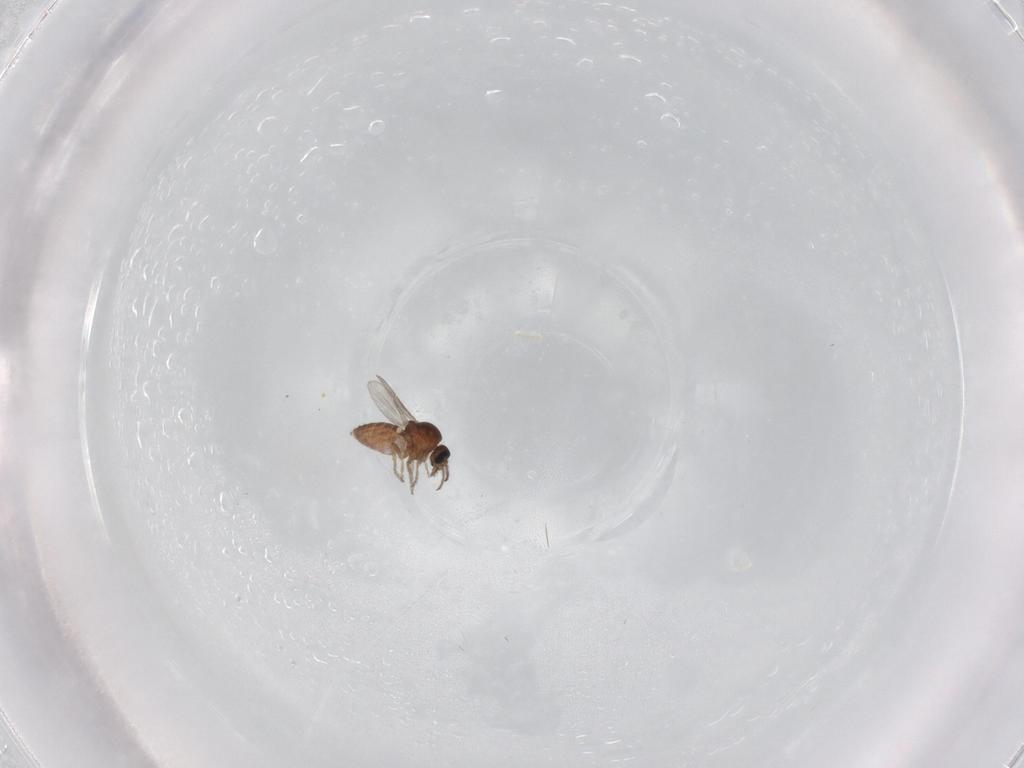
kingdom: Animalia
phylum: Arthropoda
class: Insecta
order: Diptera
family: Ceratopogonidae
